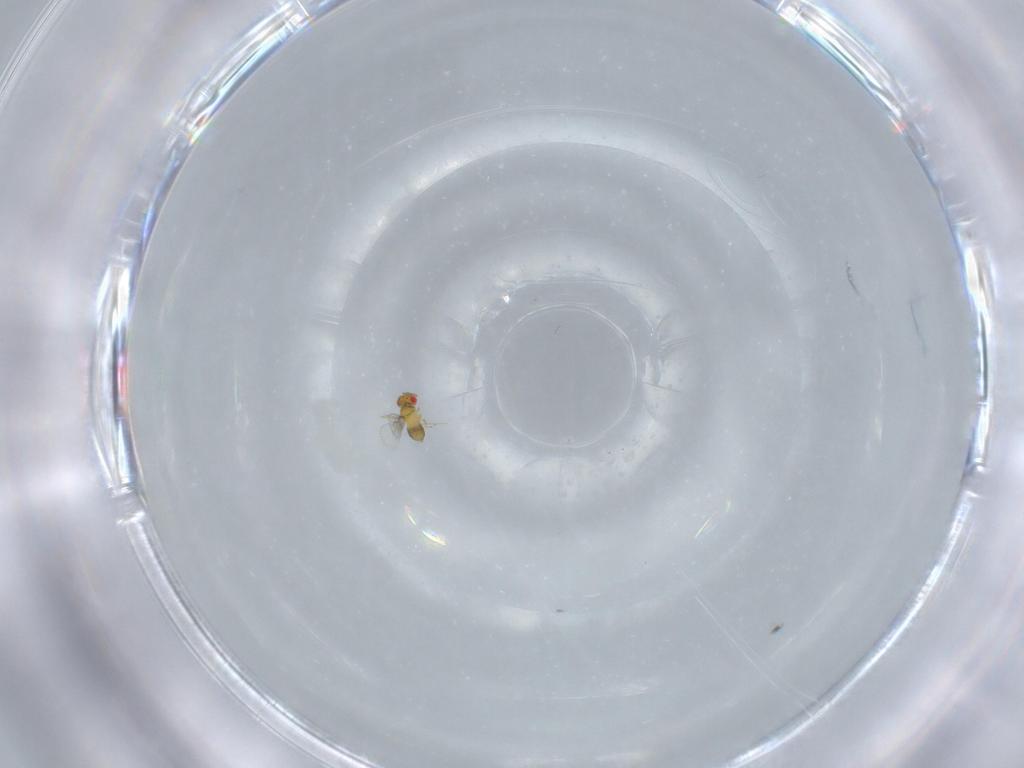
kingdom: Animalia
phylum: Arthropoda
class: Insecta
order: Hymenoptera
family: Trichogrammatidae
